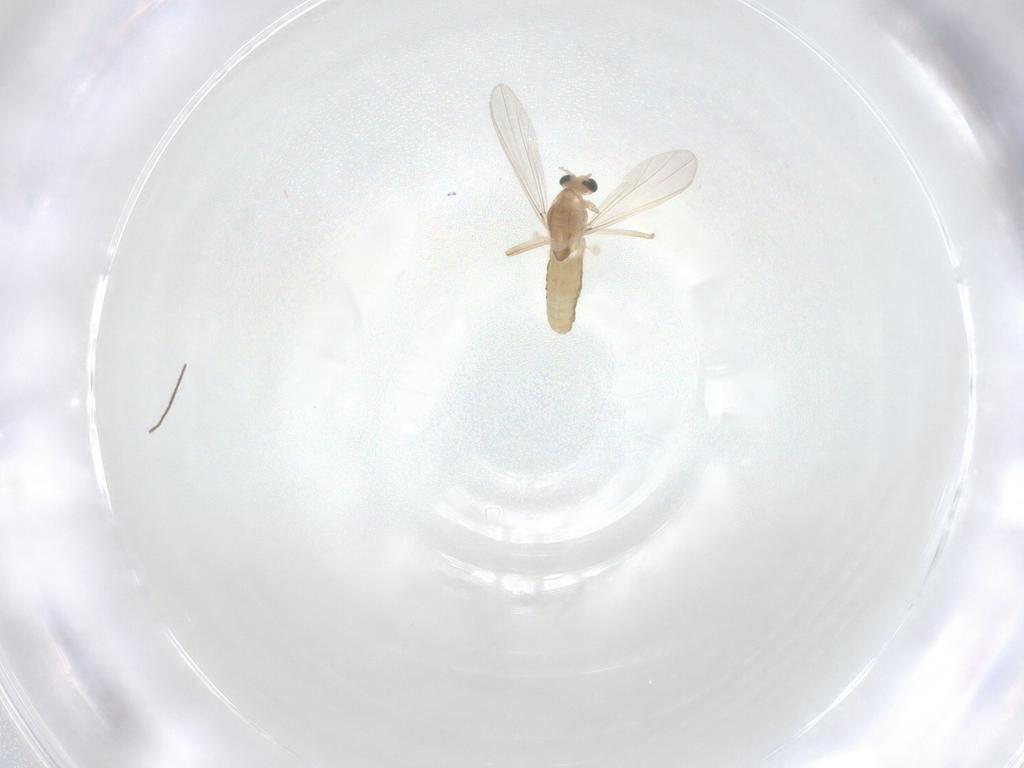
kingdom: Animalia
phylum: Arthropoda
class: Insecta
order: Diptera
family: Chironomidae
